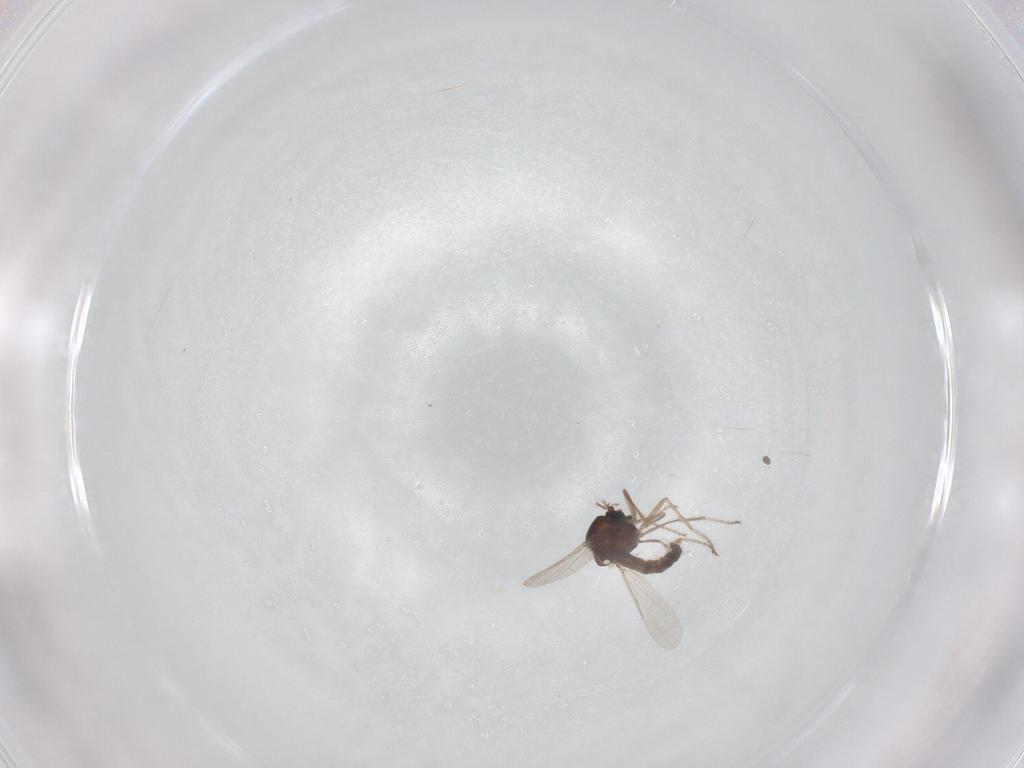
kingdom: Animalia
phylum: Arthropoda
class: Insecta
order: Diptera
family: Ceratopogonidae
